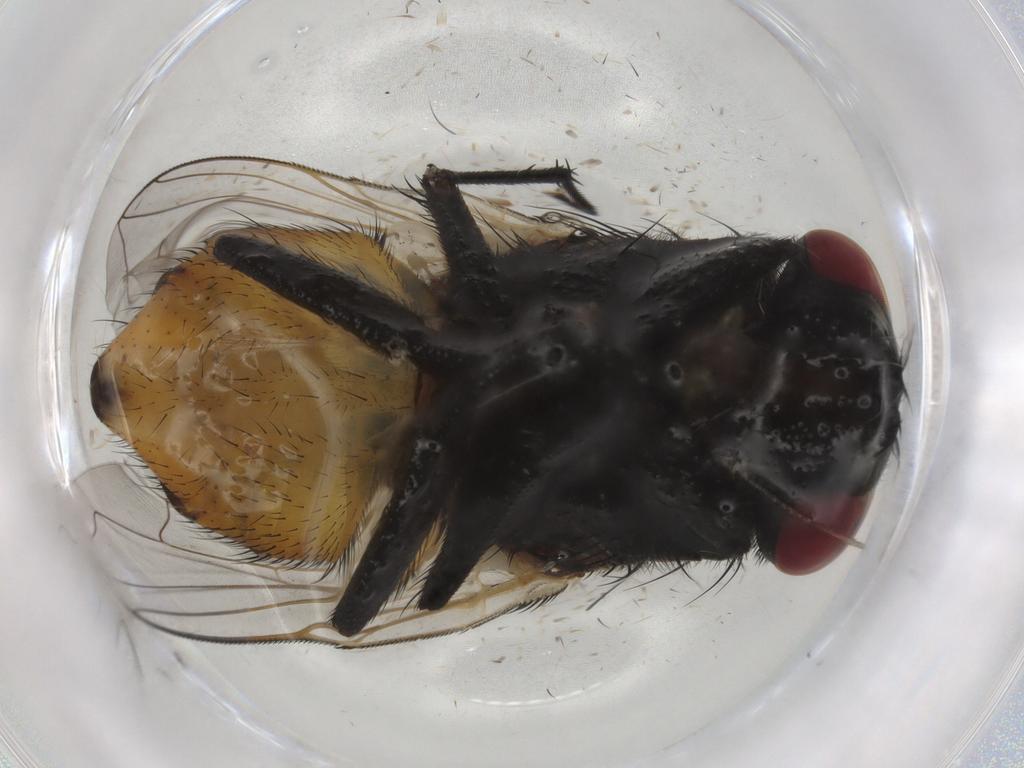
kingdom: Animalia
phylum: Arthropoda
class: Insecta
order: Diptera
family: Muscidae
